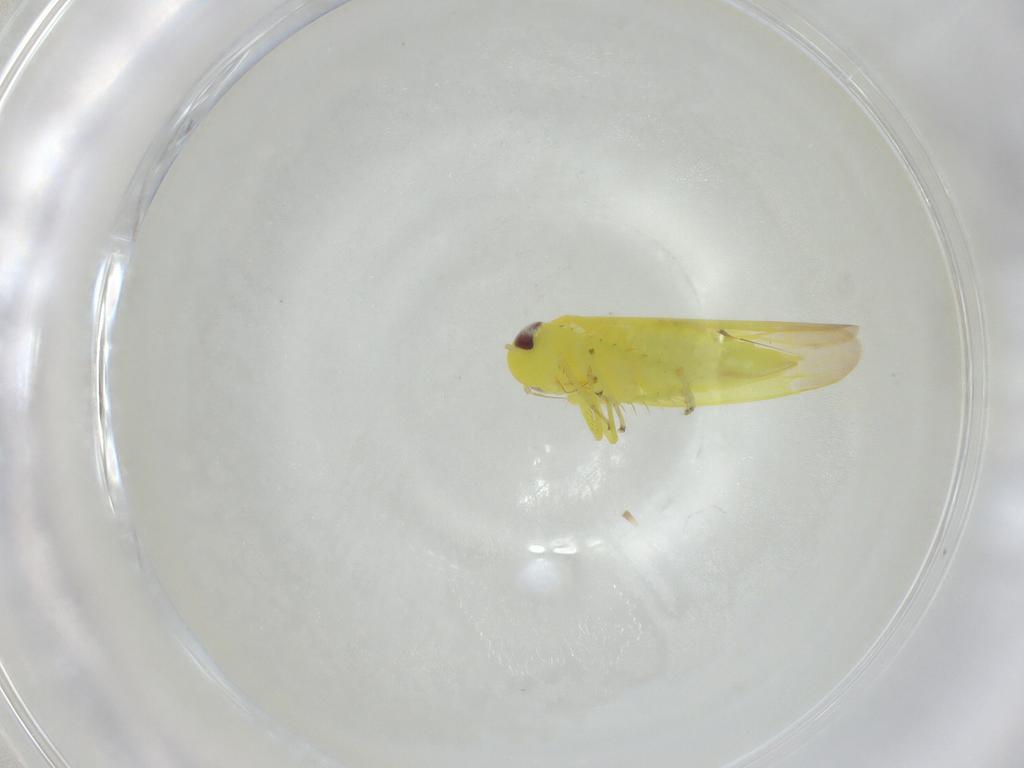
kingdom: Animalia
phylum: Arthropoda
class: Insecta
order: Hemiptera
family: Cicadellidae
